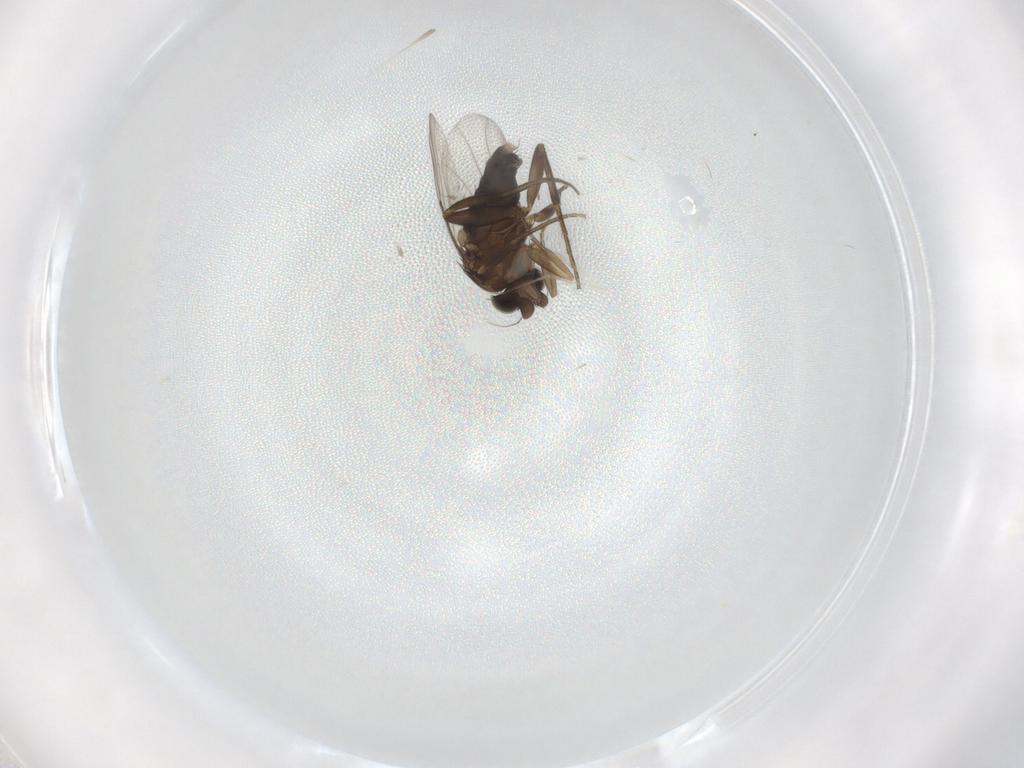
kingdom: Animalia
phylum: Arthropoda
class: Insecta
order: Diptera
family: Phoridae
